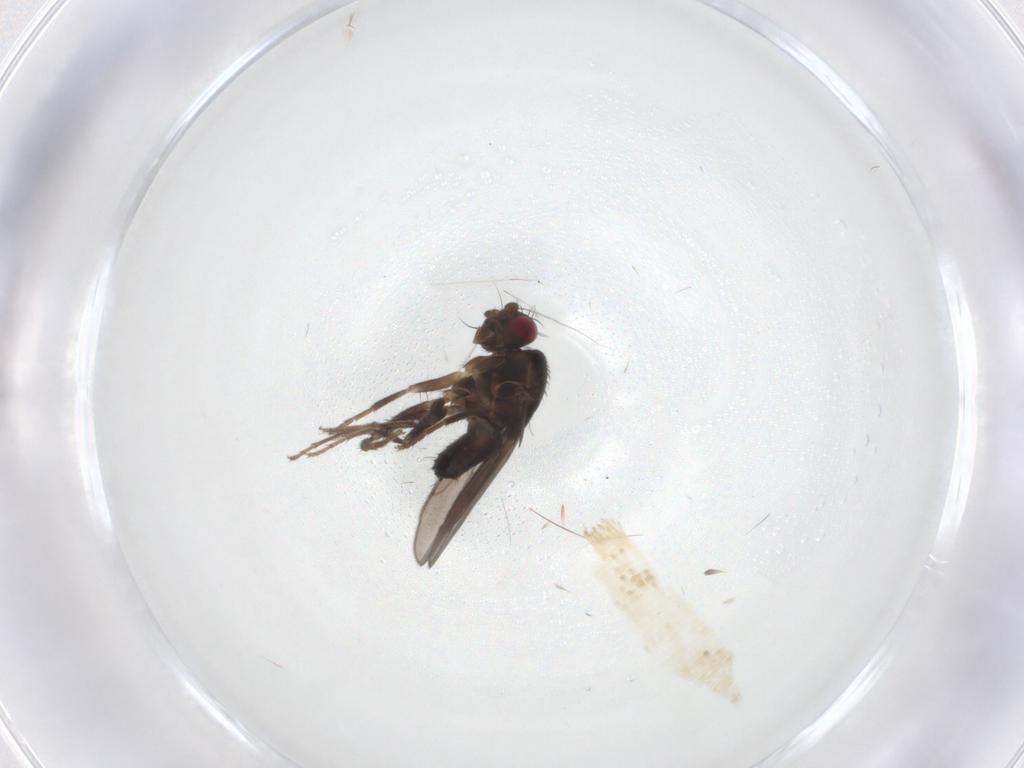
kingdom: Animalia
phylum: Arthropoda
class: Insecta
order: Diptera
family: Sphaeroceridae
